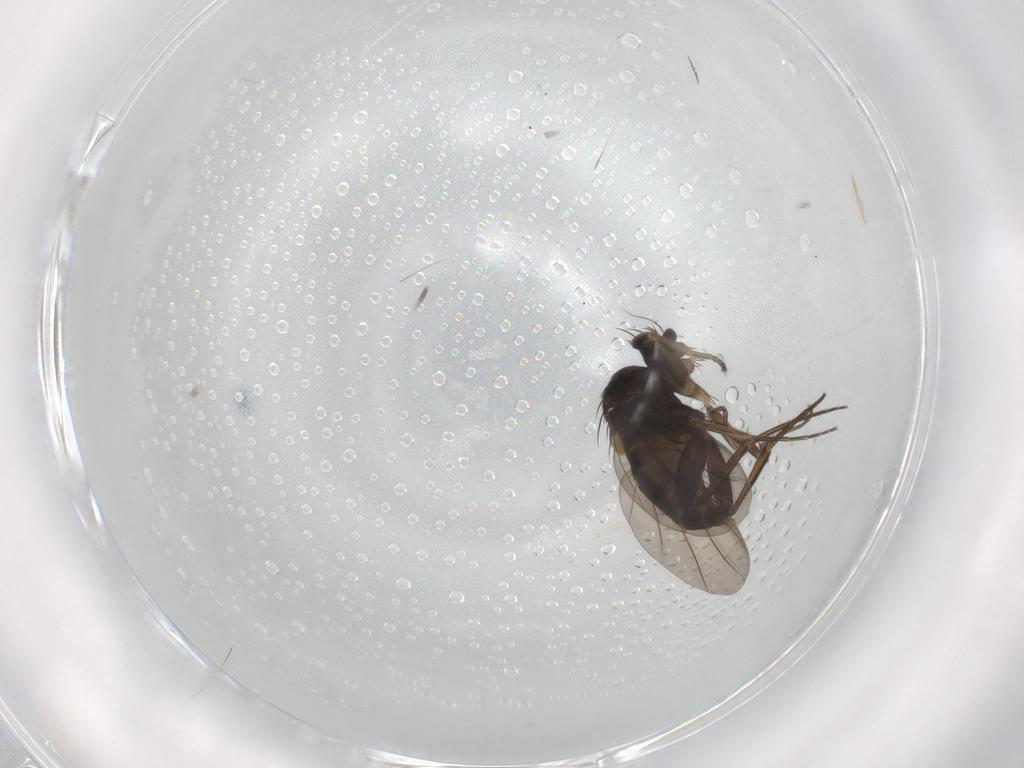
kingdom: Animalia
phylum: Arthropoda
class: Insecta
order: Diptera
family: Phoridae
